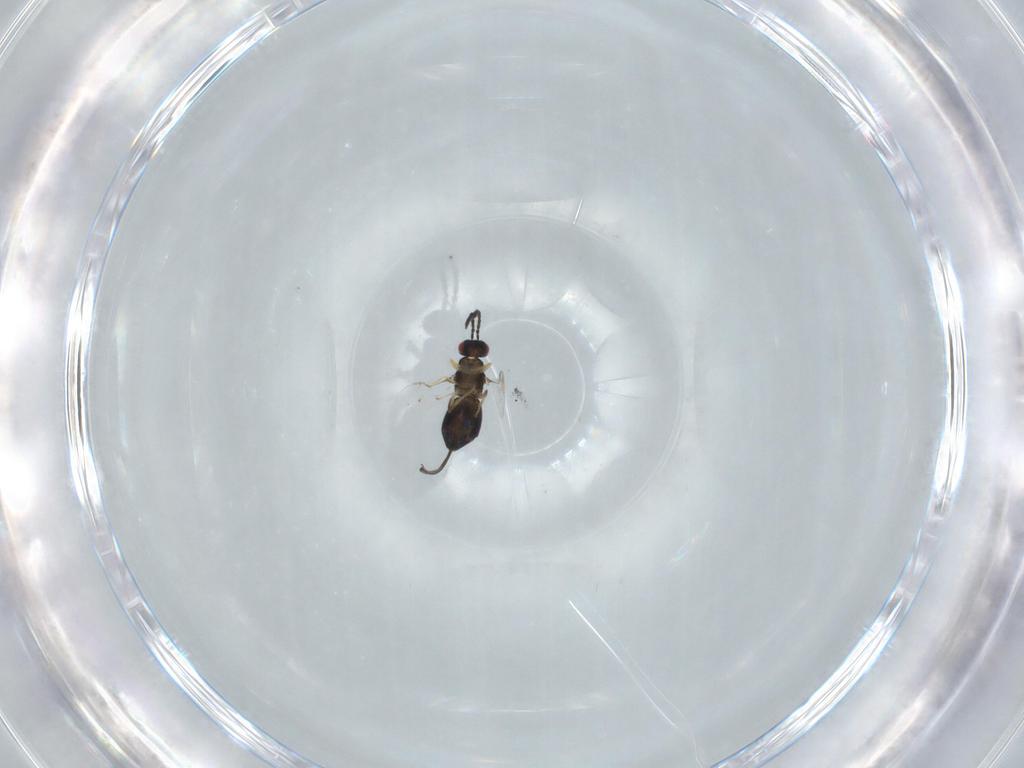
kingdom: Animalia
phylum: Arthropoda
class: Insecta
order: Hymenoptera
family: Pteromalidae
